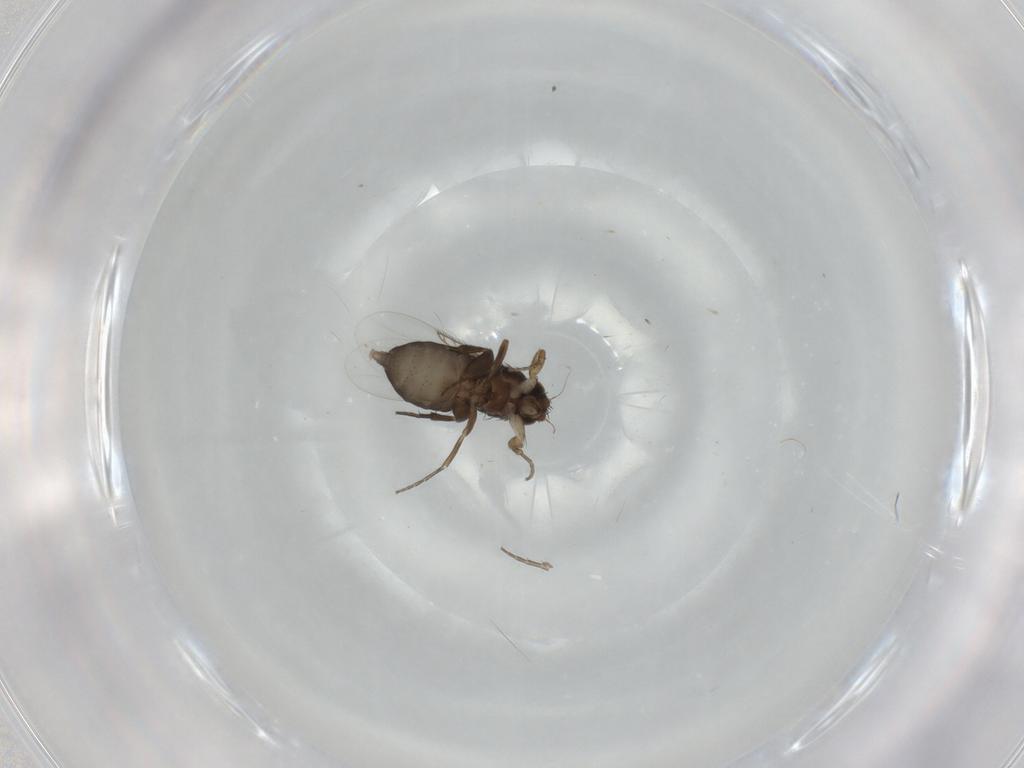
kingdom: Animalia
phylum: Arthropoda
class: Insecta
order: Diptera
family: Phoridae
